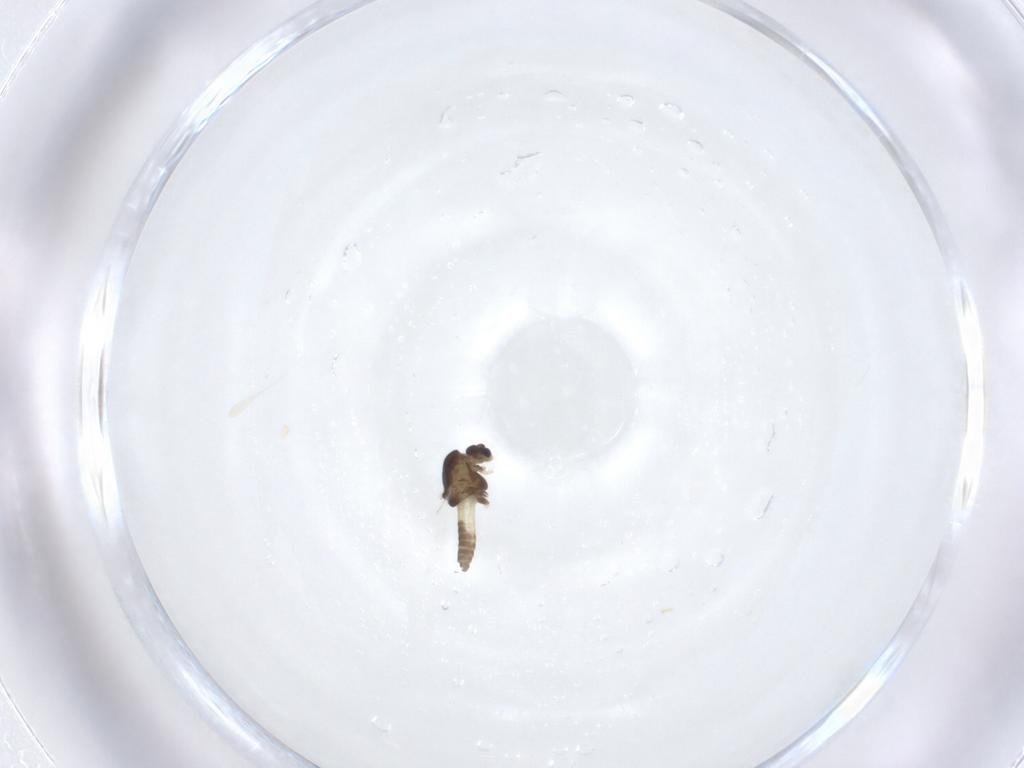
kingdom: Animalia
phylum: Arthropoda
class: Insecta
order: Diptera
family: Chironomidae
